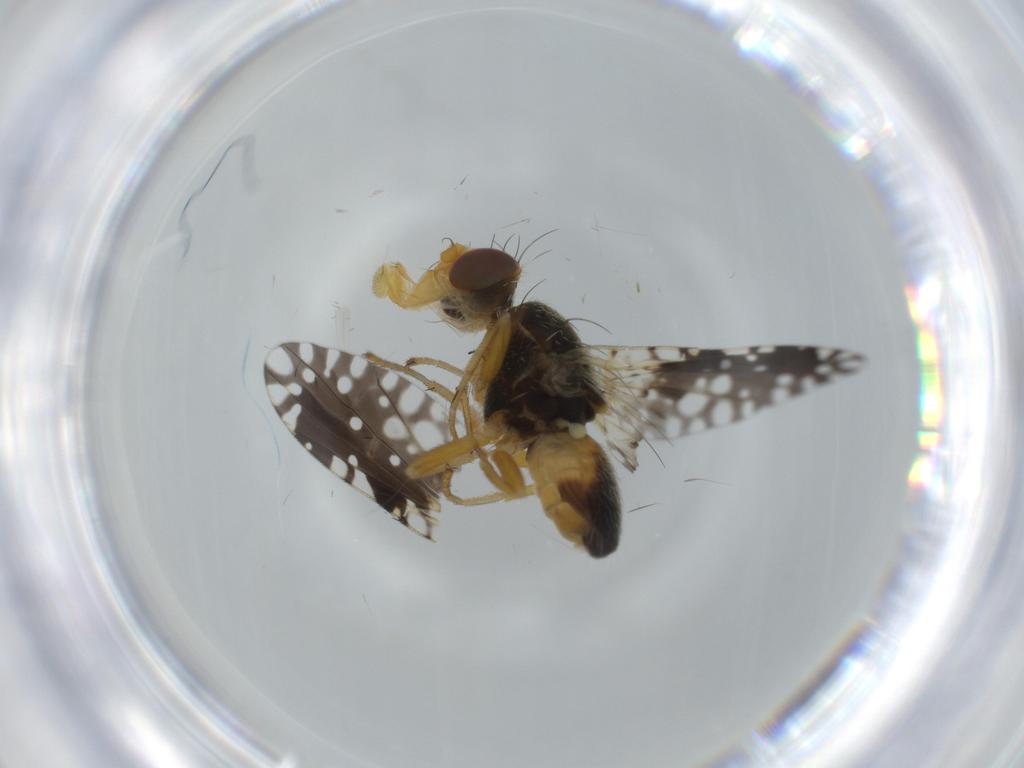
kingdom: Animalia
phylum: Arthropoda
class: Insecta
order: Diptera
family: Tephritidae
